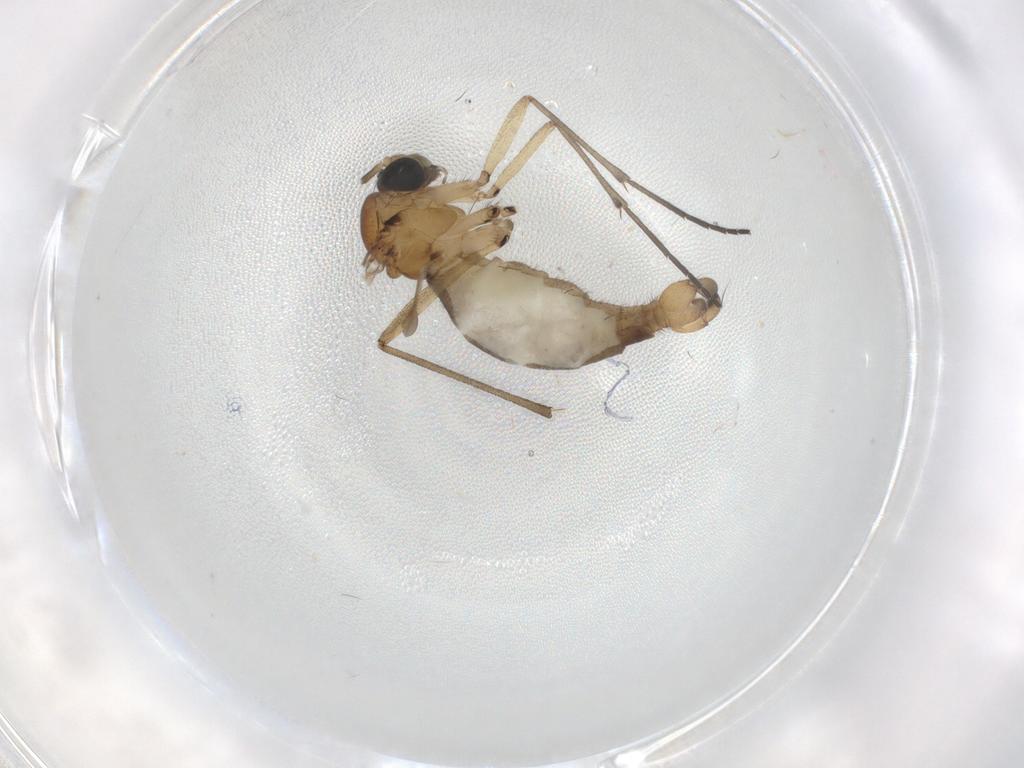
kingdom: Animalia
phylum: Arthropoda
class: Insecta
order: Diptera
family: Sciaridae
